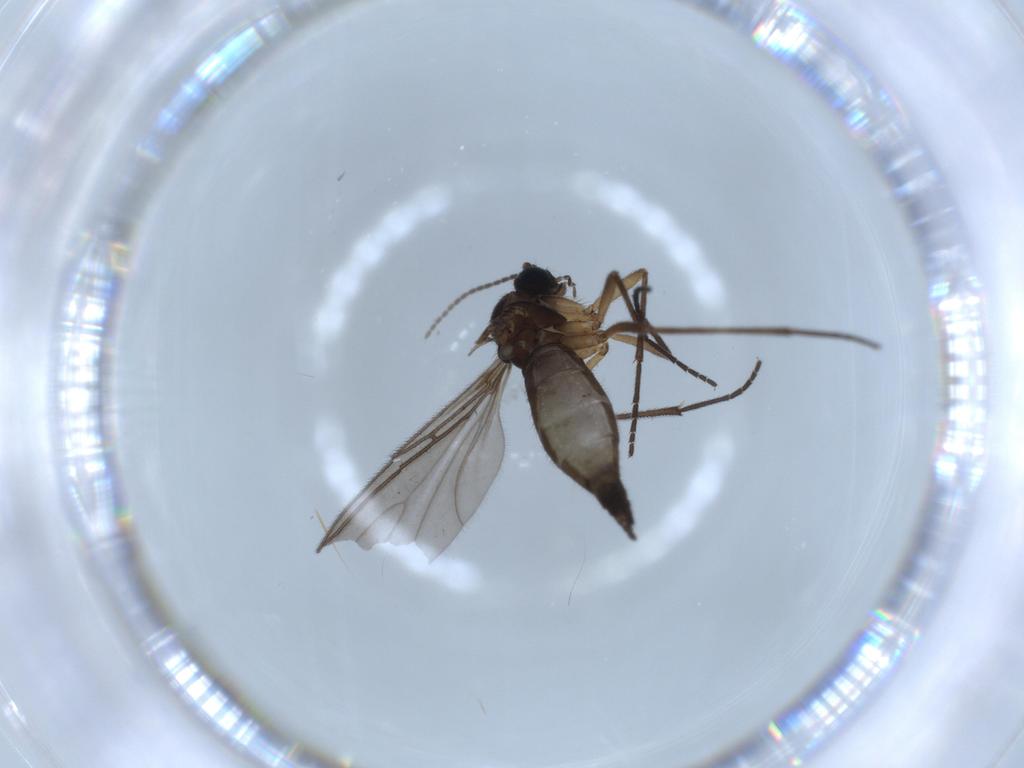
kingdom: Animalia
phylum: Arthropoda
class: Insecta
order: Diptera
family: Sciaridae
